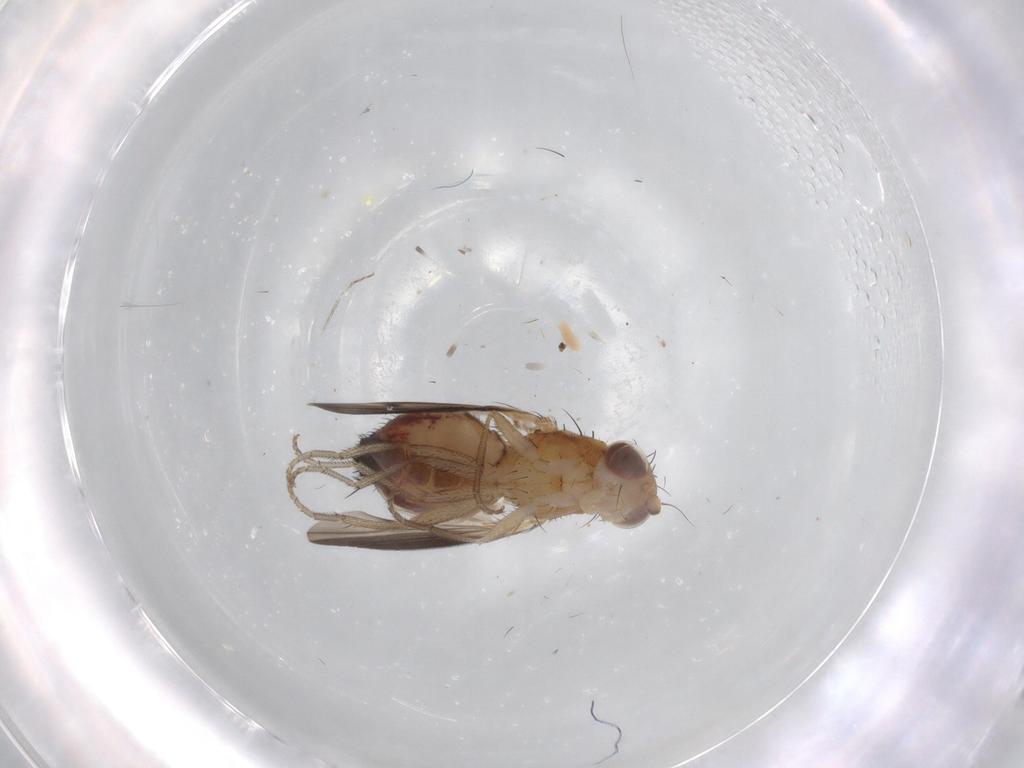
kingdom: Animalia
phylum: Arthropoda
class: Insecta
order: Diptera
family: Heleomyzidae
